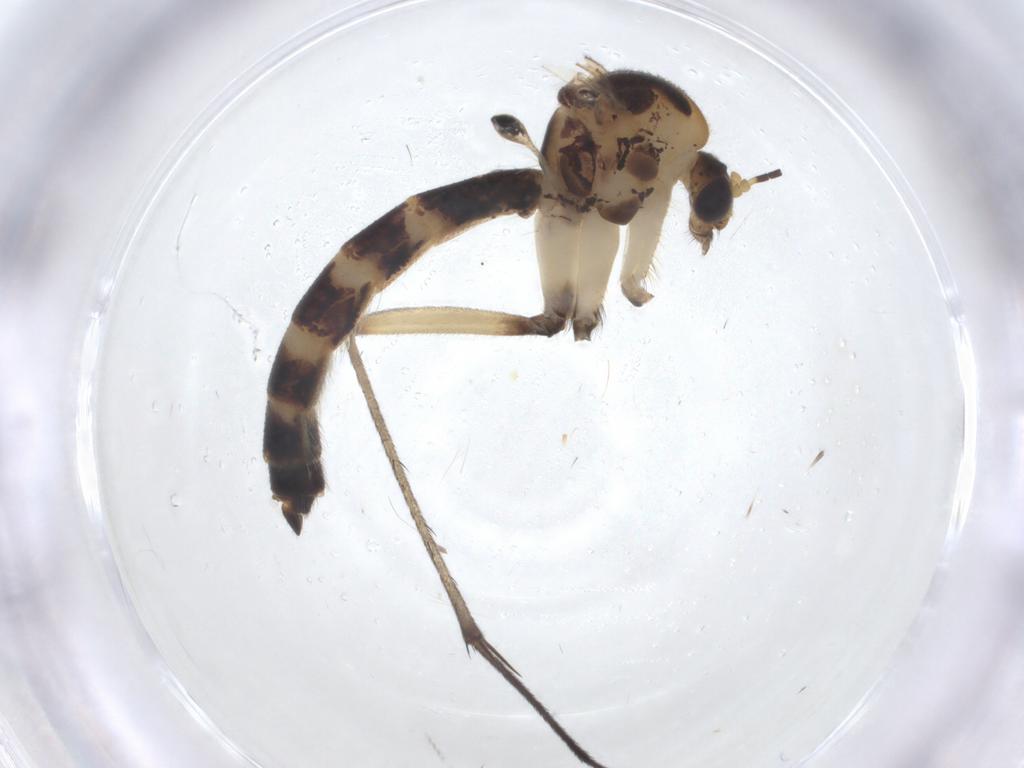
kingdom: Animalia
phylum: Arthropoda
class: Insecta
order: Diptera
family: Mycetophilidae
